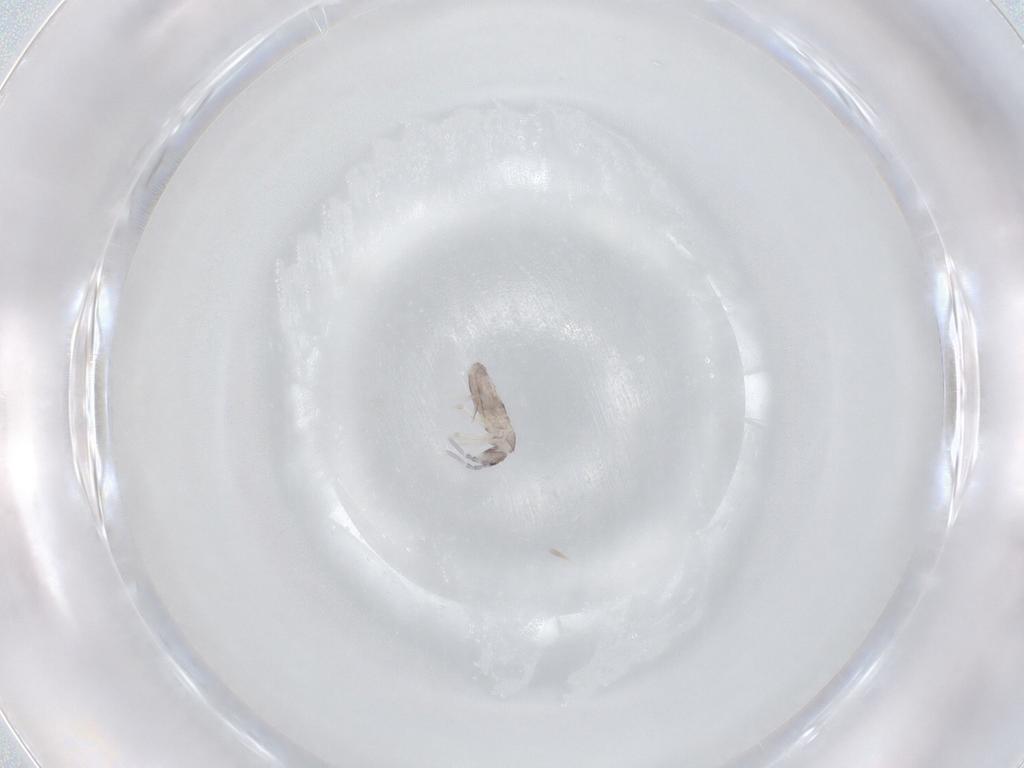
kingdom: Animalia
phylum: Arthropoda
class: Collembola
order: Entomobryomorpha
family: Entomobryidae
